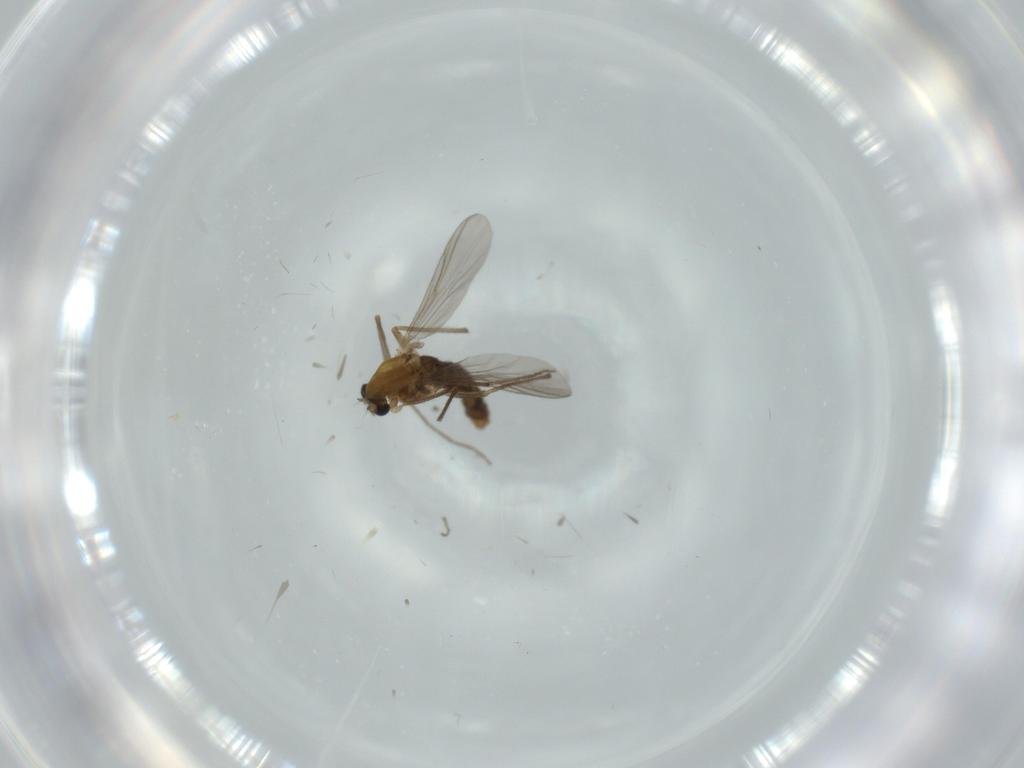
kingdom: Animalia
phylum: Arthropoda
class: Insecta
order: Diptera
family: Chironomidae
